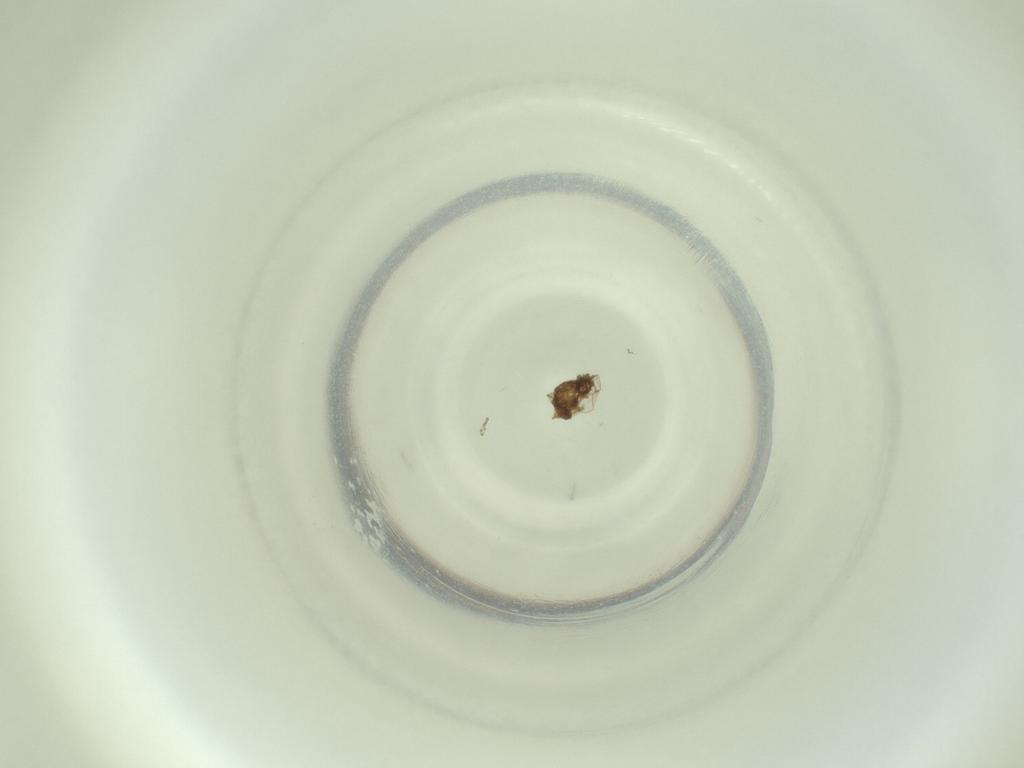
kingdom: Animalia
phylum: Arthropoda
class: Insecta
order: Diptera
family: Cecidomyiidae
